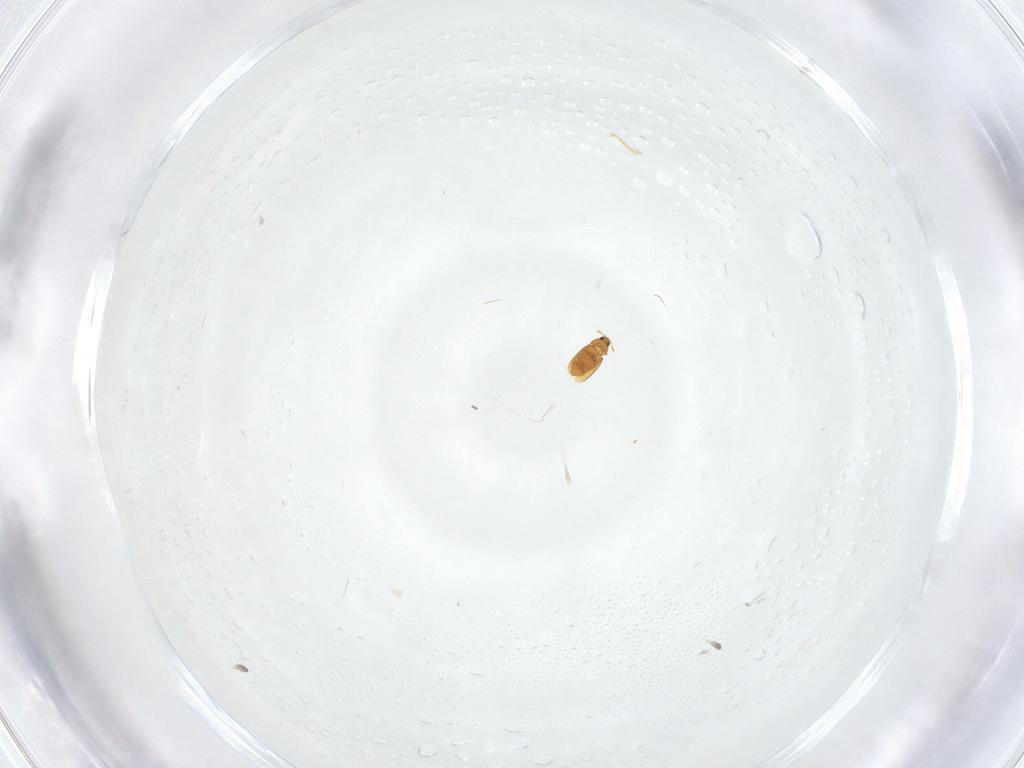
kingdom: Animalia
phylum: Arthropoda
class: Insecta
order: Coleoptera
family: Ptiliidae
